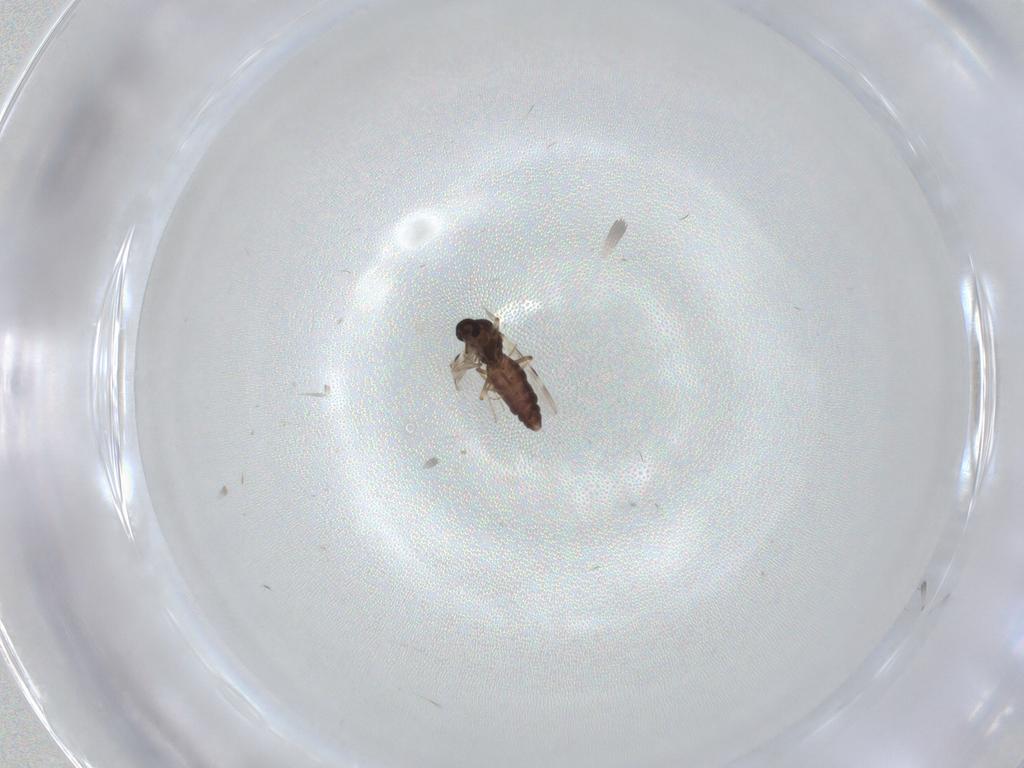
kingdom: Animalia
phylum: Arthropoda
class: Insecta
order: Diptera
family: Chironomidae
